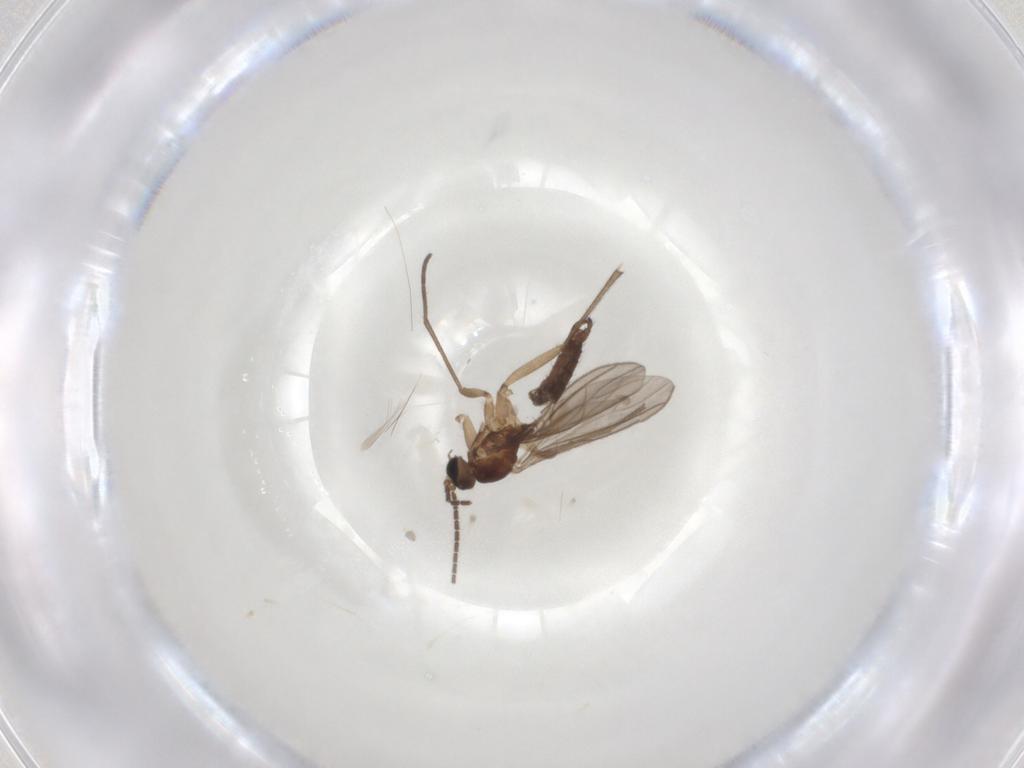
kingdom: Animalia
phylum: Arthropoda
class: Insecta
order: Diptera
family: Sciaridae
